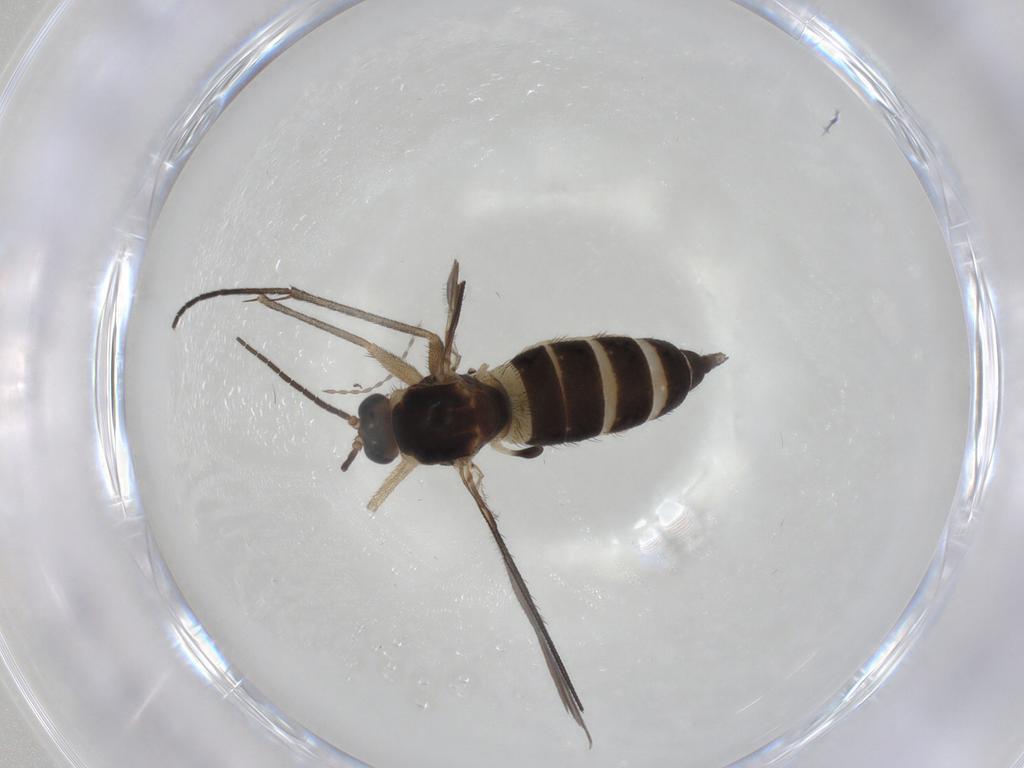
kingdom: Animalia
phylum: Arthropoda
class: Insecta
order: Diptera
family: Sciaridae
